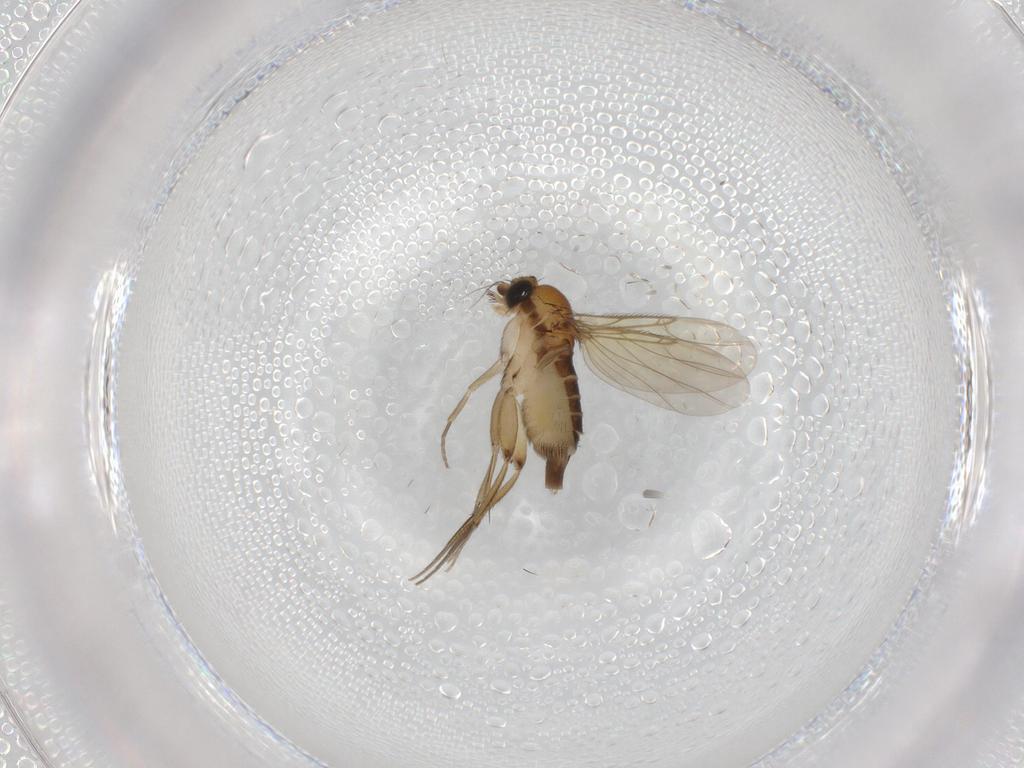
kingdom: Animalia
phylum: Arthropoda
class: Insecta
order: Diptera
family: Phoridae
